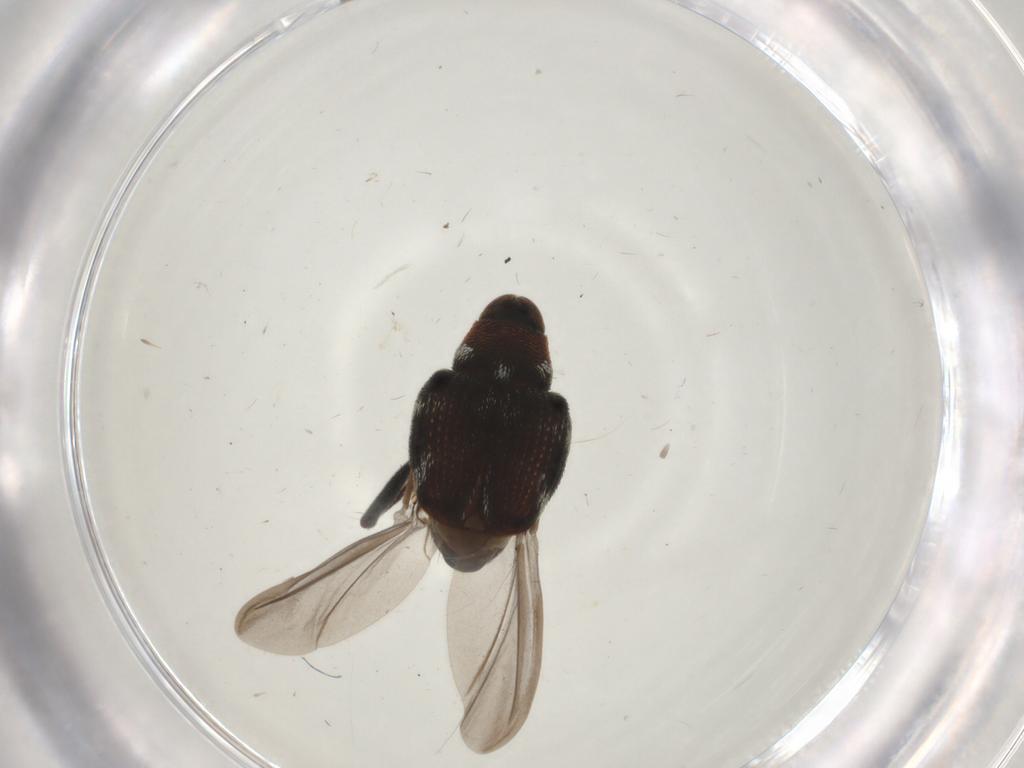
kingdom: Animalia
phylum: Arthropoda
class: Insecta
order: Coleoptera
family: Curculionidae
